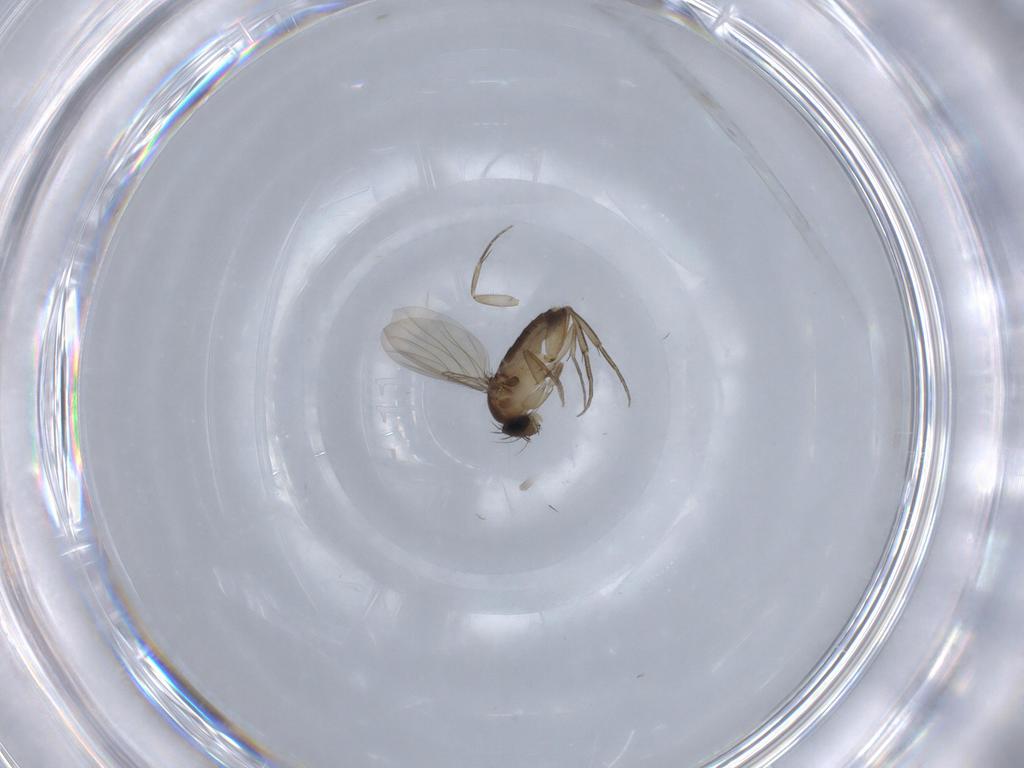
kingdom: Animalia
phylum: Arthropoda
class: Insecta
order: Diptera
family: Phoridae
